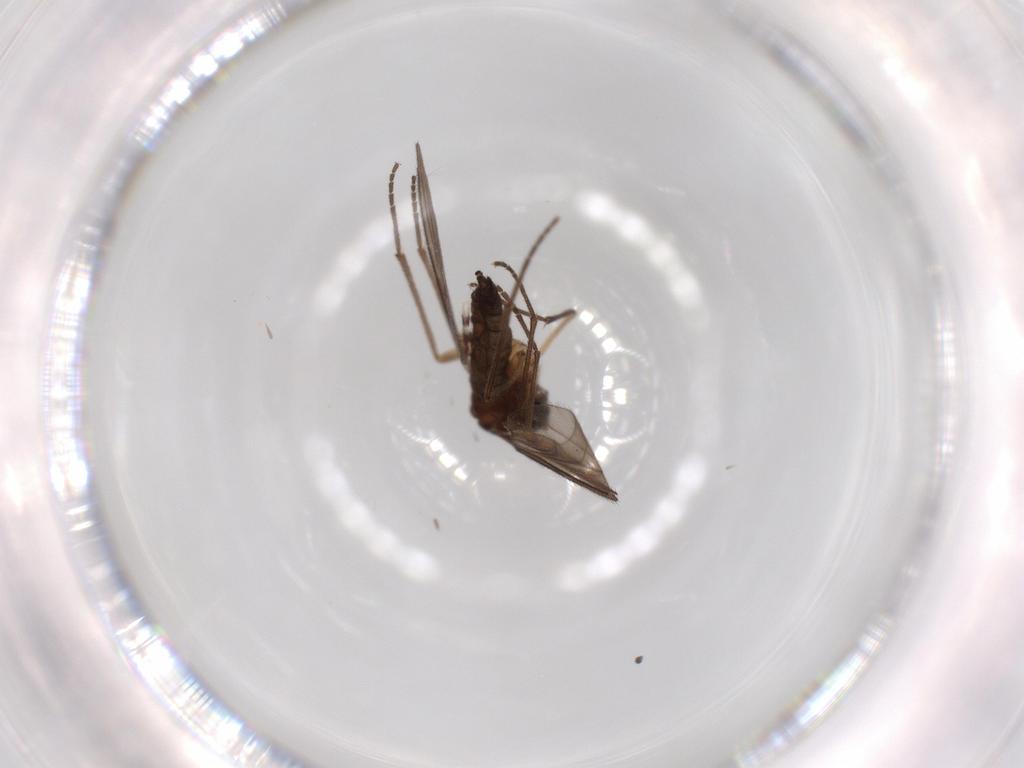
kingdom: Animalia
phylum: Arthropoda
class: Collembola
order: Entomobryomorpha
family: Entomobryidae
